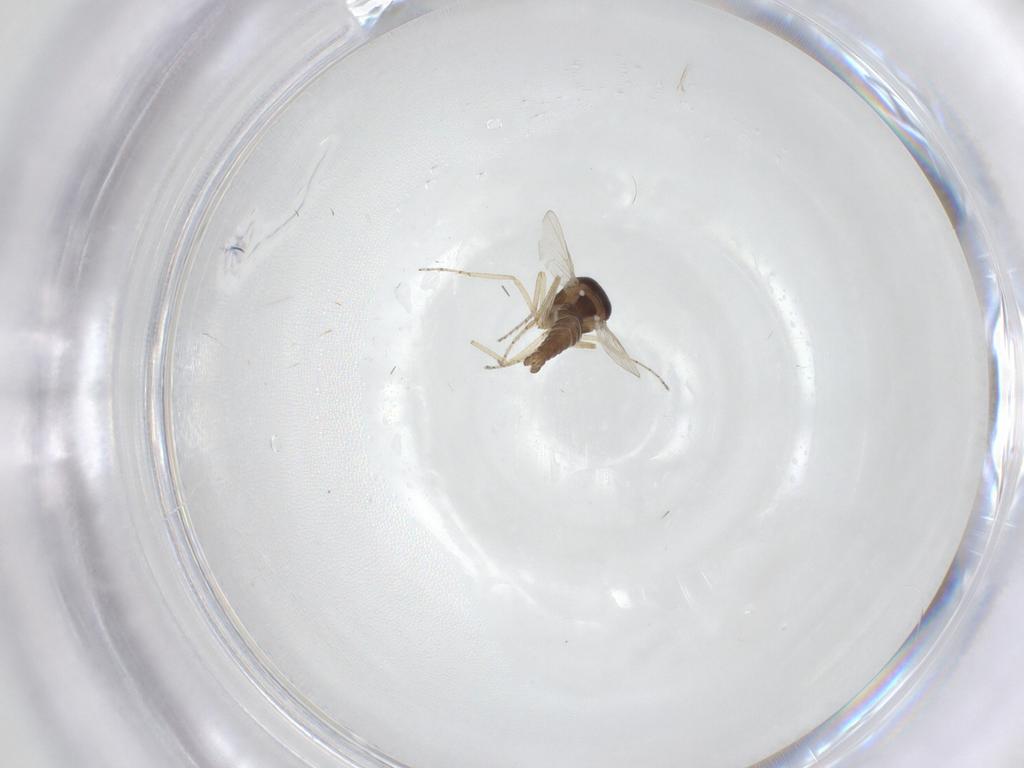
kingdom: Animalia
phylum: Arthropoda
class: Insecta
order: Diptera
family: Ceratopogonidae
